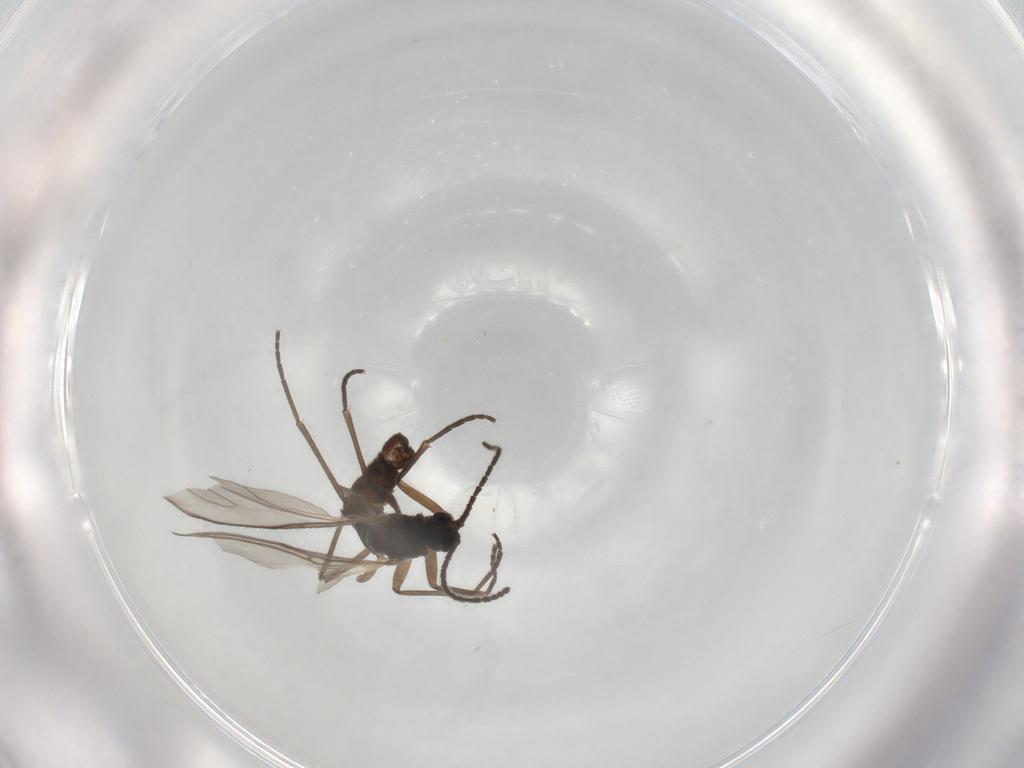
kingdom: Animalia
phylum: Arthropoda
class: Insecta
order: Diptera
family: Sciaridae
